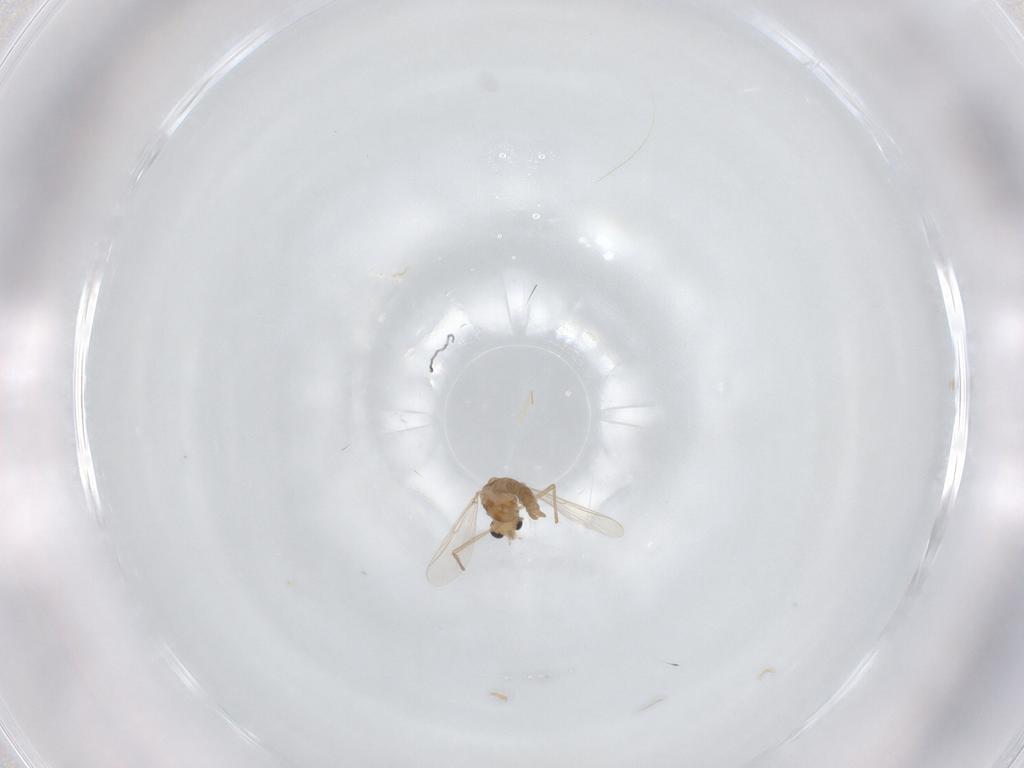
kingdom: Animalia
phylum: Arthropoda
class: Insecta
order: Diptera
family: Chironomidae
